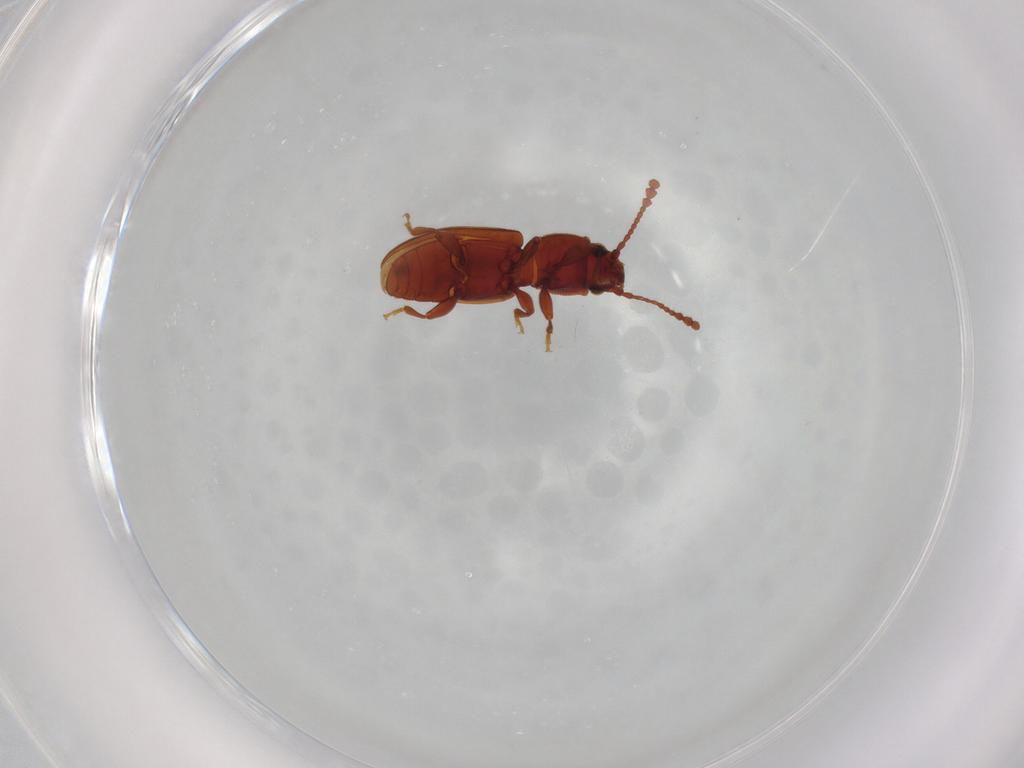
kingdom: Animalia
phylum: Arthropoda
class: Insecta
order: Coleoptera
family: Silvanidae
